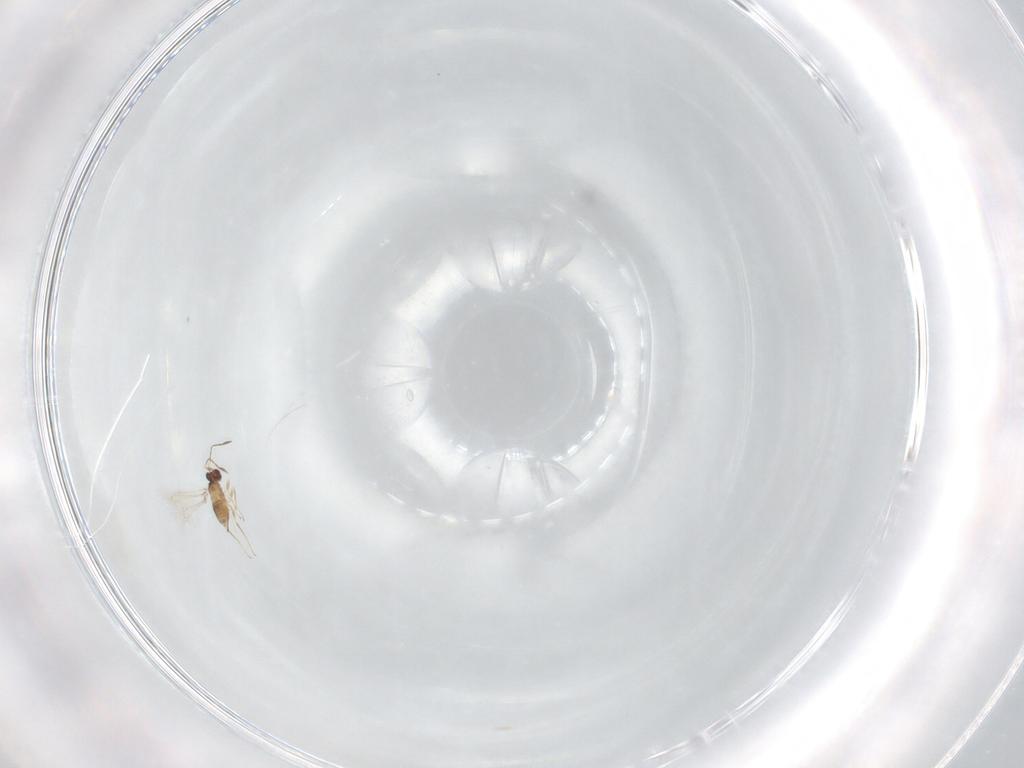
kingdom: Animalia
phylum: Arthropoda
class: Insecta
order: Hymenoptera
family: Mymaridae
